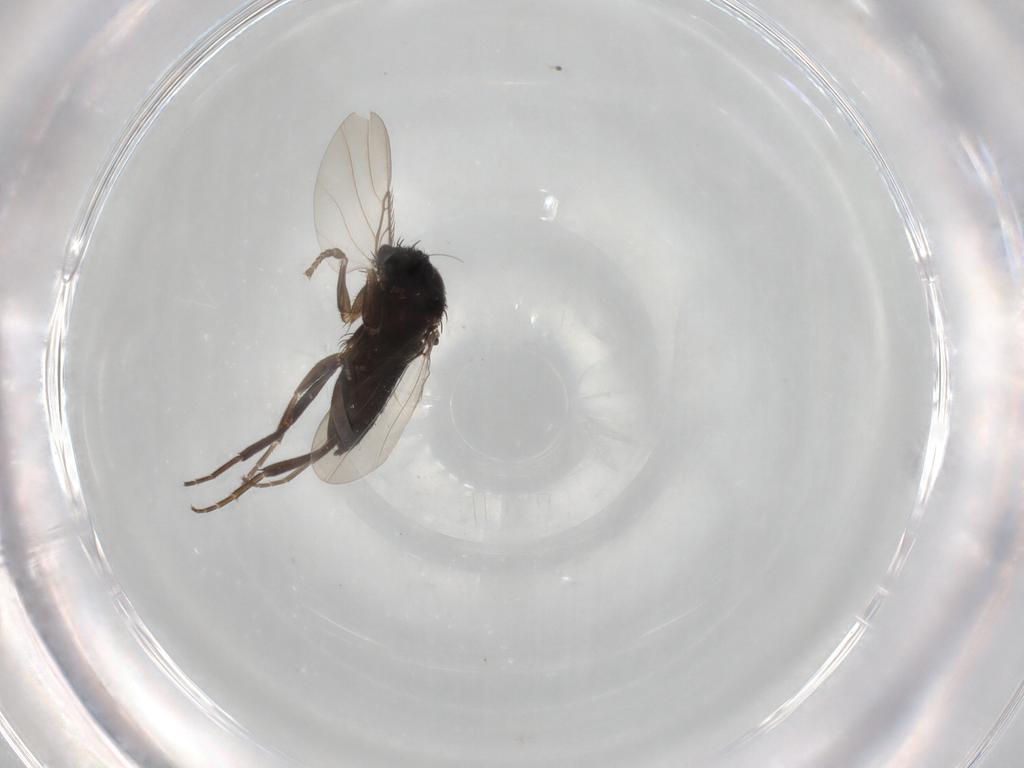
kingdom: Animalia
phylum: Arthropoda
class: Insecta
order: Diptera
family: Phoridae
